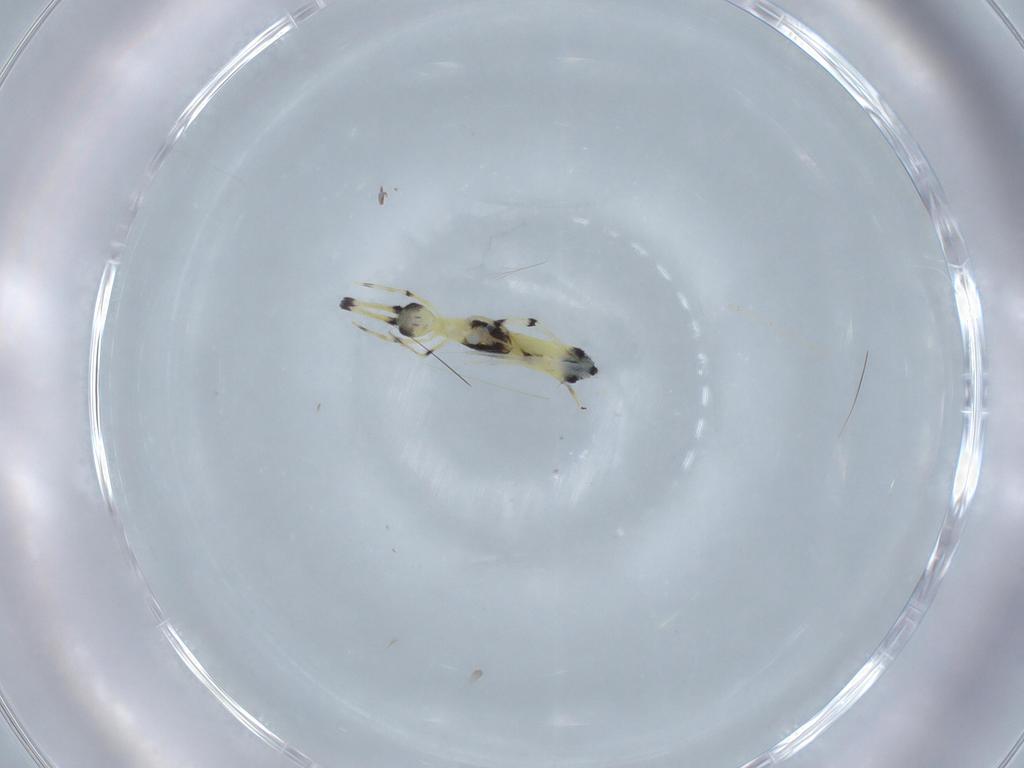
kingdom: Animalia
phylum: Arthropoda
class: Collembola
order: Entomobryomorpha
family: Paronellidae
